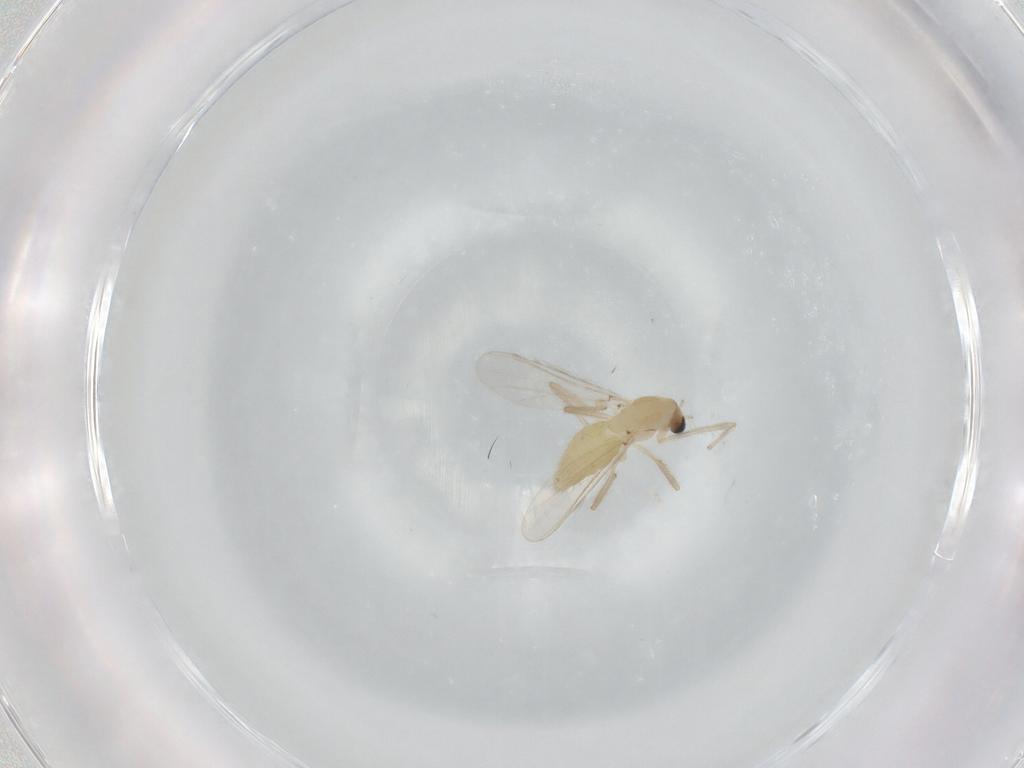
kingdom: Animalia
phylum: Arthropoda
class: Insecta
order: Diptera
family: Chironomidae
